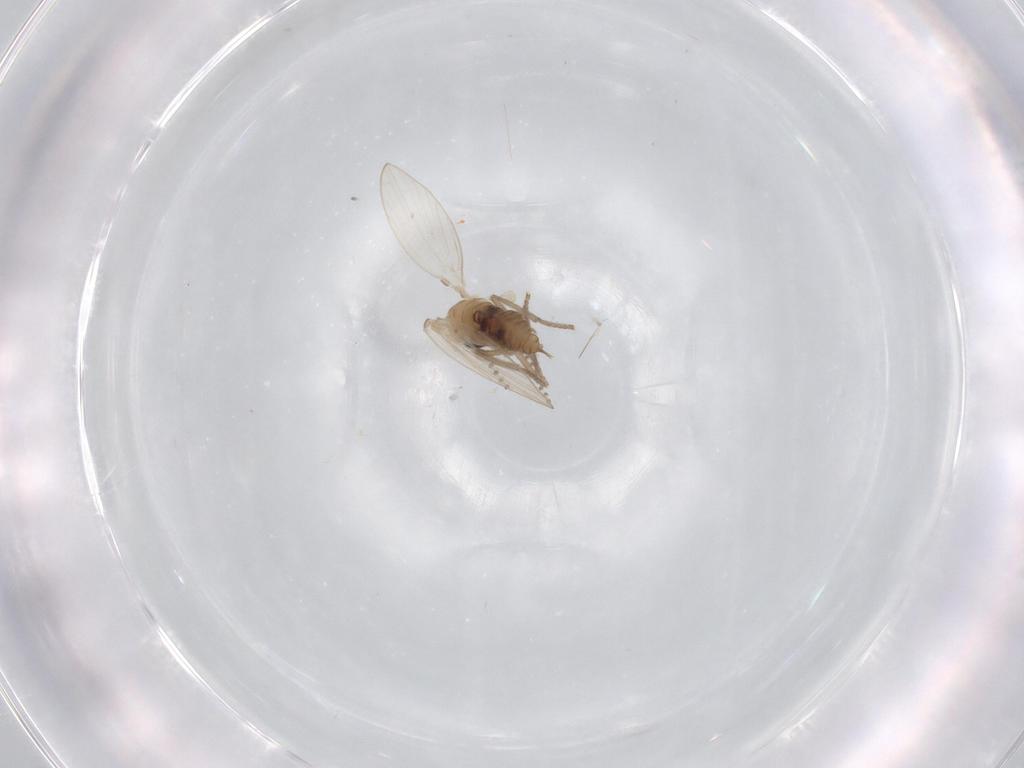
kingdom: Animalia
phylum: Arthropoda
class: Insecta
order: Diptera
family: Psychodidae
